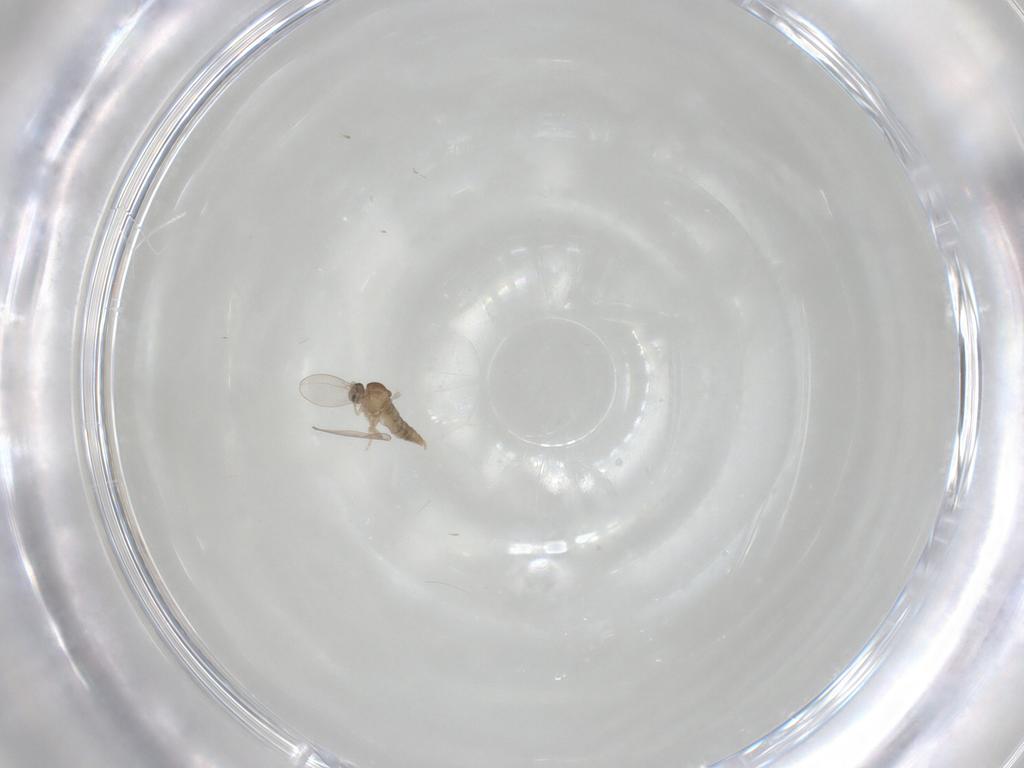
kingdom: Animalia
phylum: Arthropoda
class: Insecta
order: Diptera
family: Cecidomyiidae
